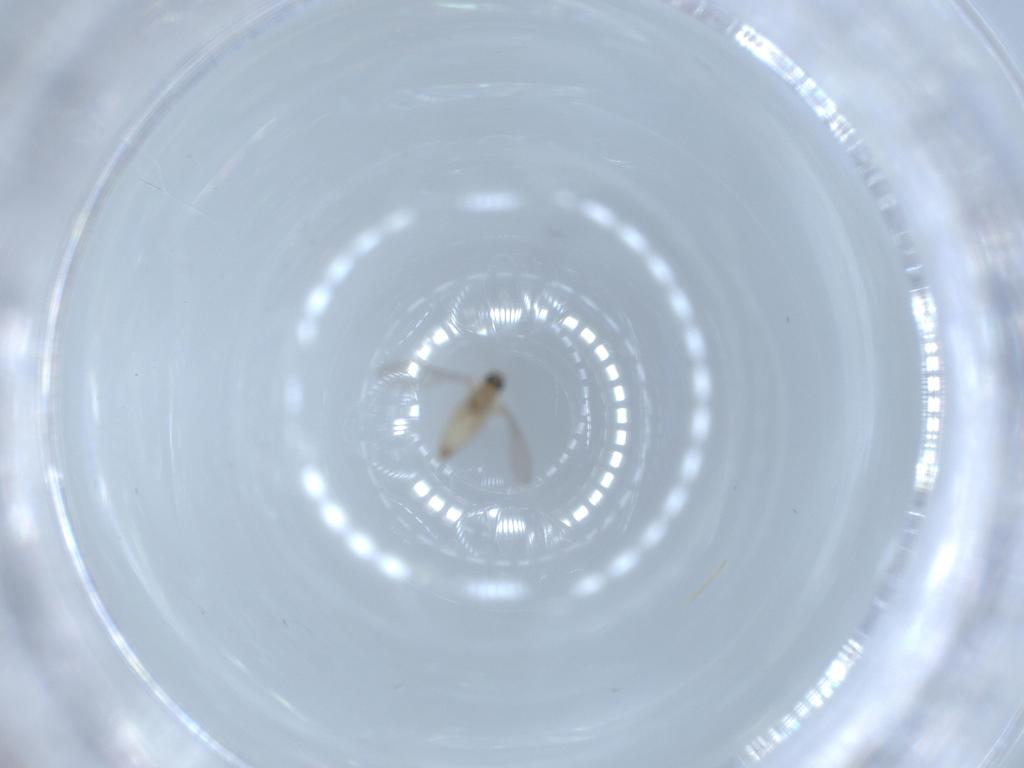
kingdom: Animalia
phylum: Arthropoda
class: Insecta
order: Diptera
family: Cecidomyiidae
